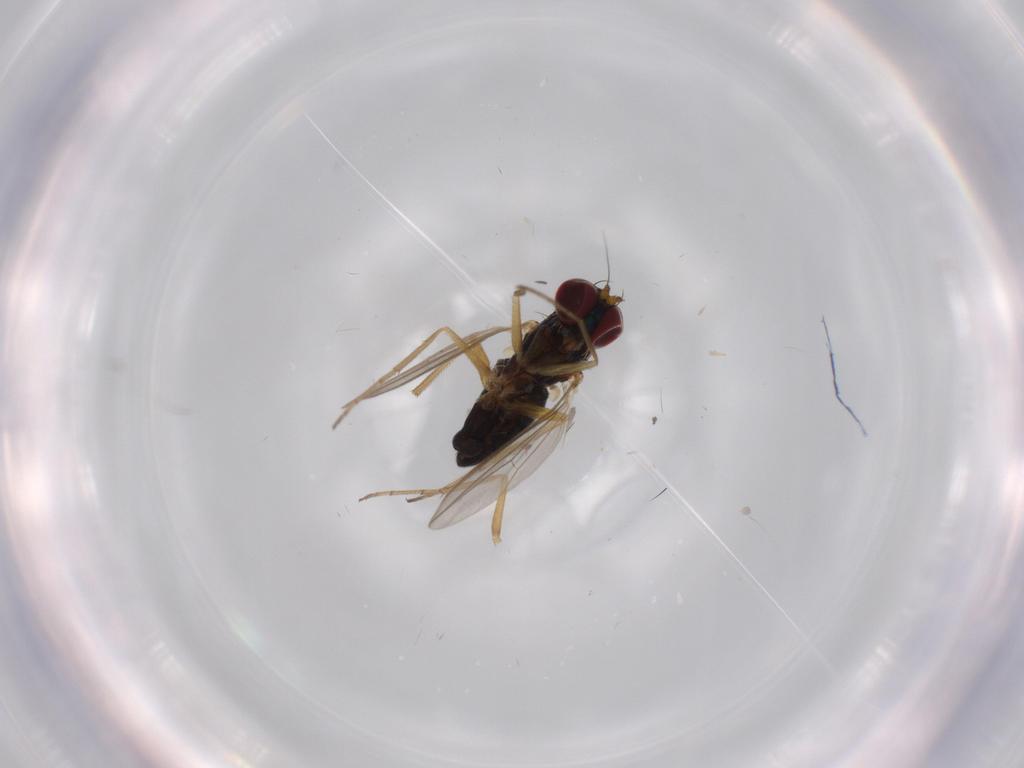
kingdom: Animalia
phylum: Arthropoda
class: Insecta
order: Diptera
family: Dolichopodidae
